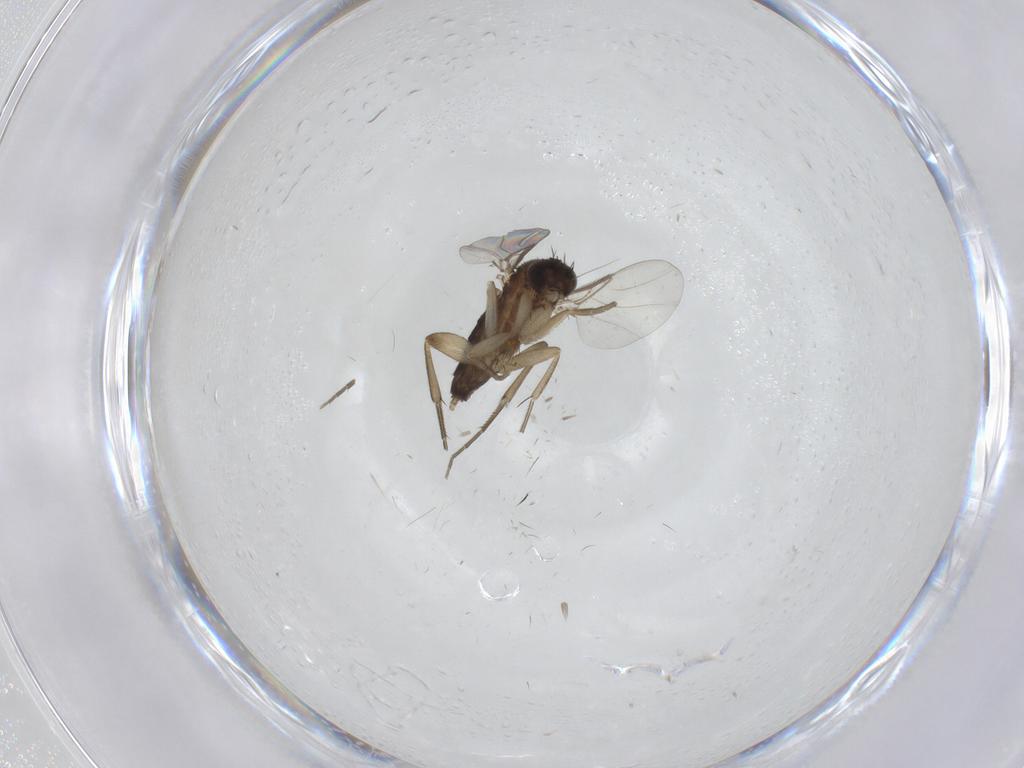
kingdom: Animalia
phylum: Arthropoda
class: Insecta
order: Diptera
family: Phoridae
